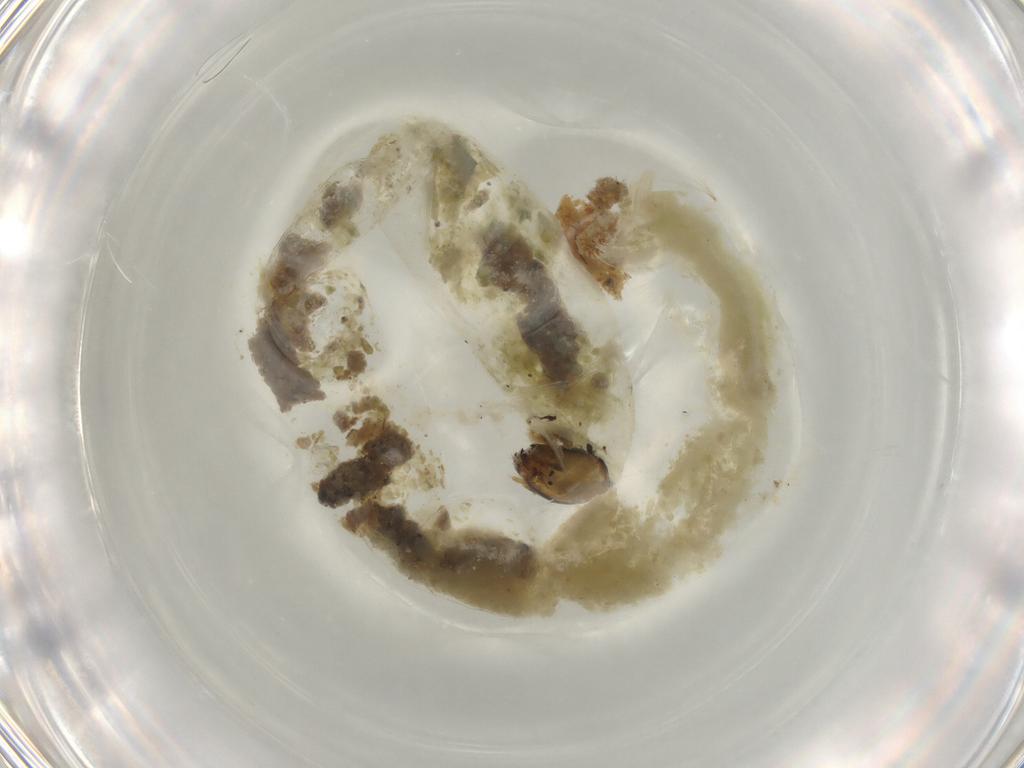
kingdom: Animalia
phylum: Arthropoda
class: Insecta
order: Diptera
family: Chironomidae
